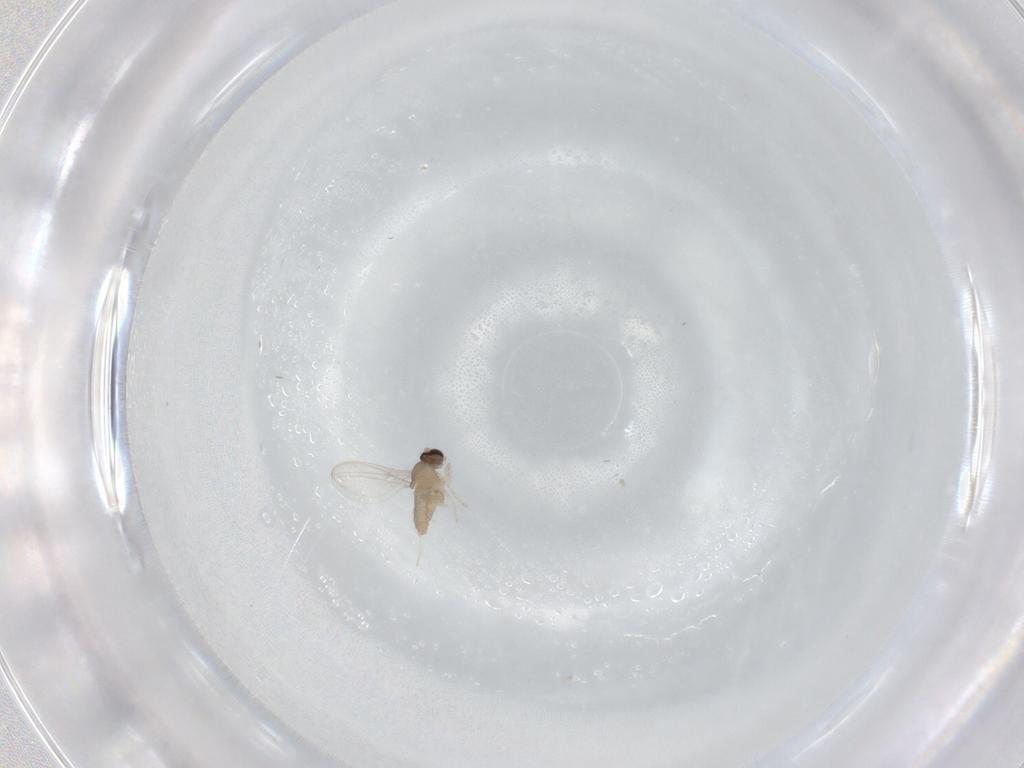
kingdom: Animalia
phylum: Arthropoda
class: Insecta
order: Diptera
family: Cecidomyiidae
